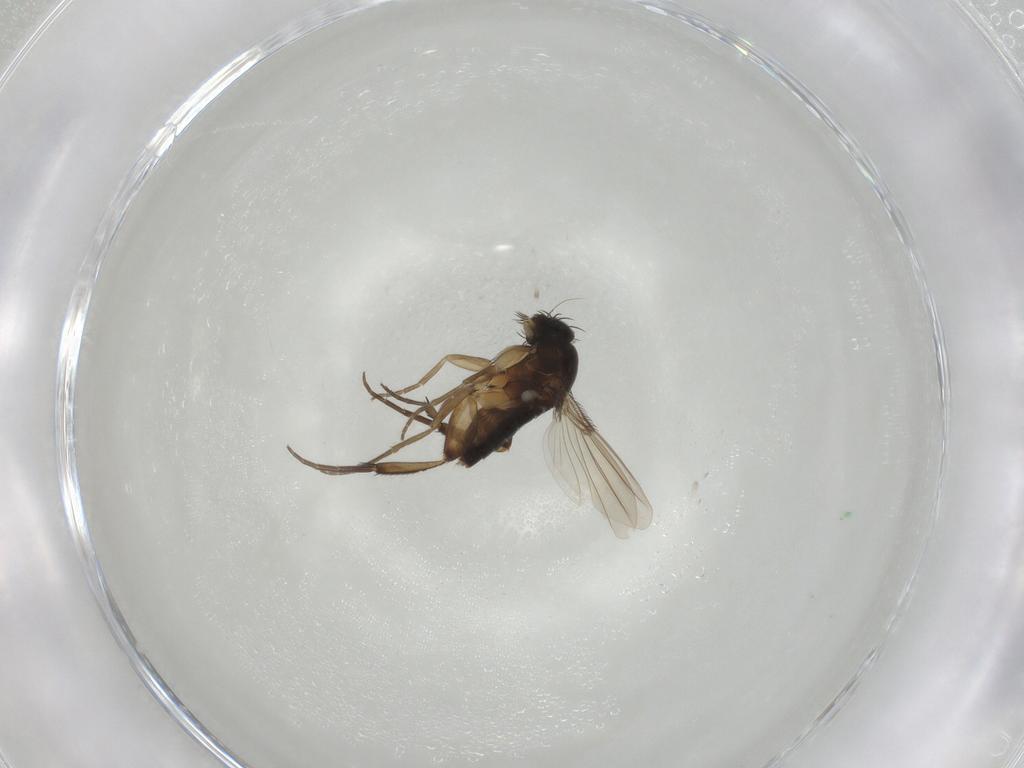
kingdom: Animalia
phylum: Arthropoda
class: Insecta
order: Diptera
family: Phoridae
